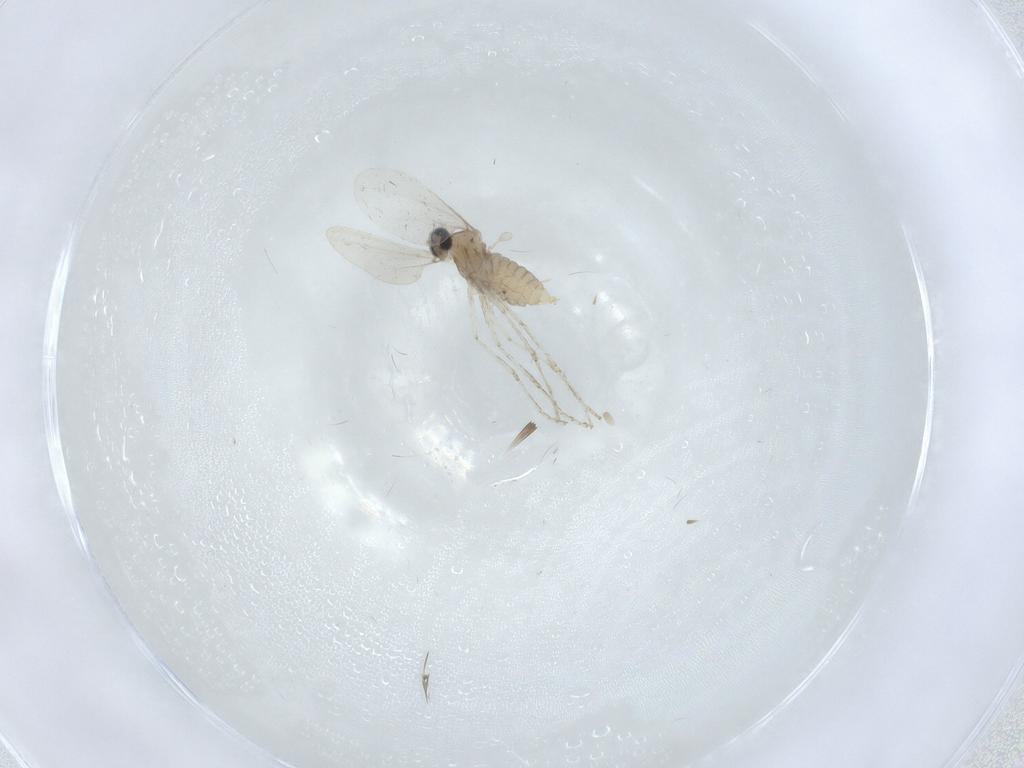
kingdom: Animalia
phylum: Arthropoda
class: Insecta
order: Diptera
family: Cecidomyiidae
